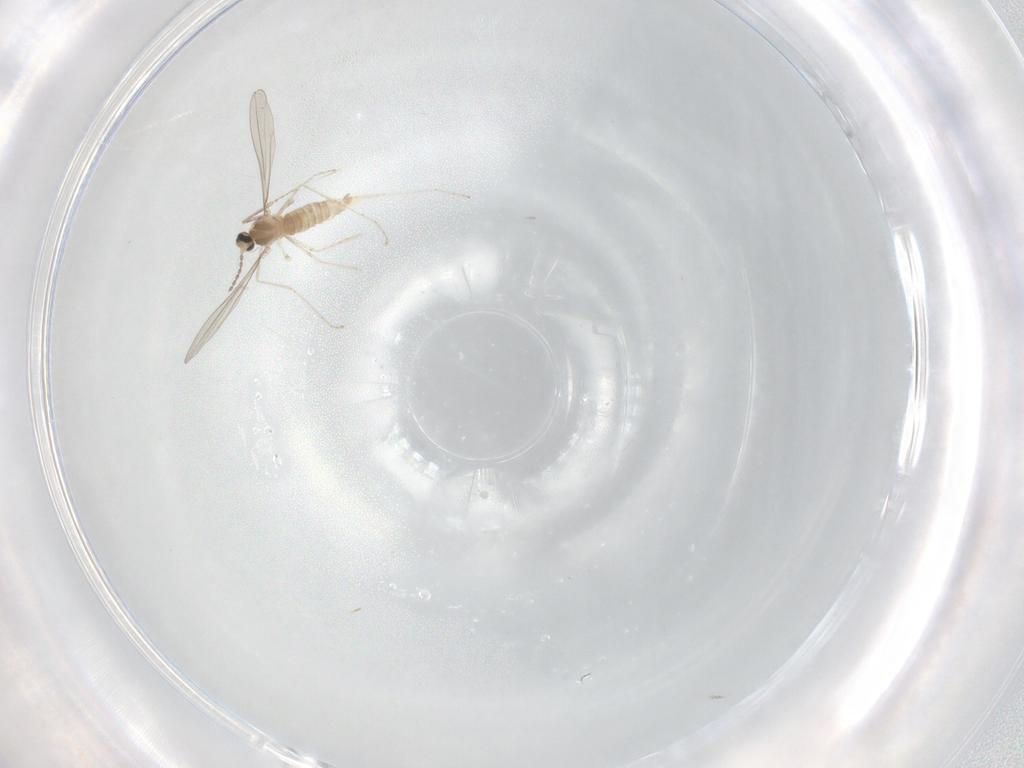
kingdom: Animalia
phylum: Arthropoda
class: Insecta
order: Diptera
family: Cecidomyiidae
